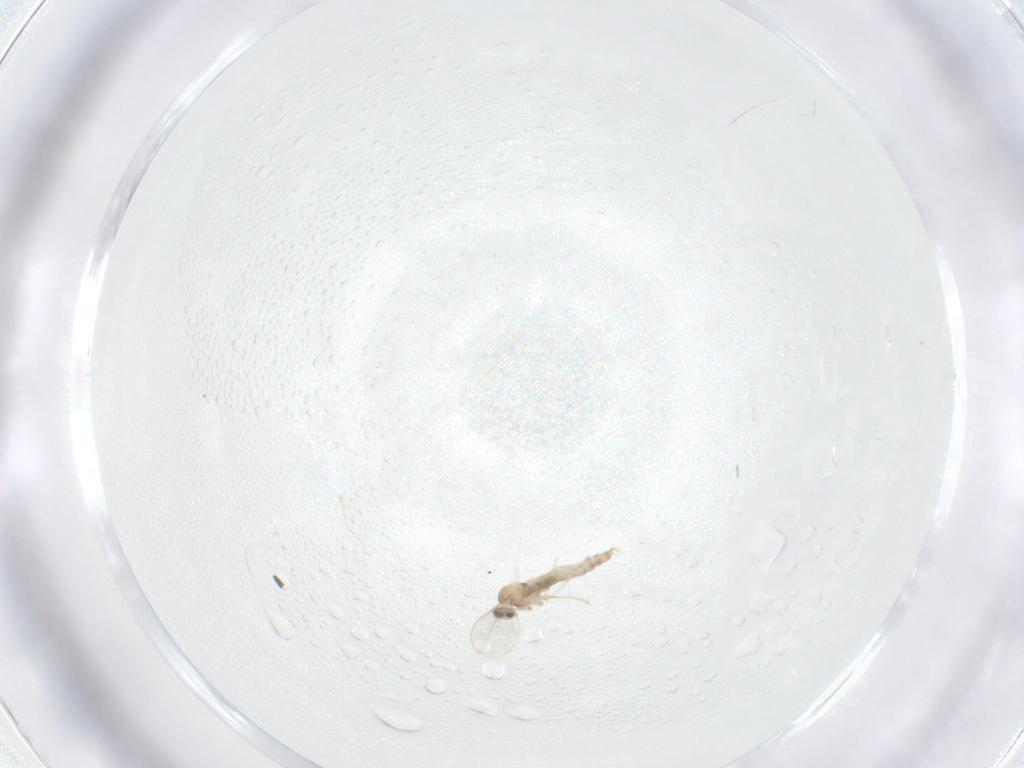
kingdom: Animalia
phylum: Arthropoda
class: Insecta
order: Diptera
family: Cecidomyiidae
